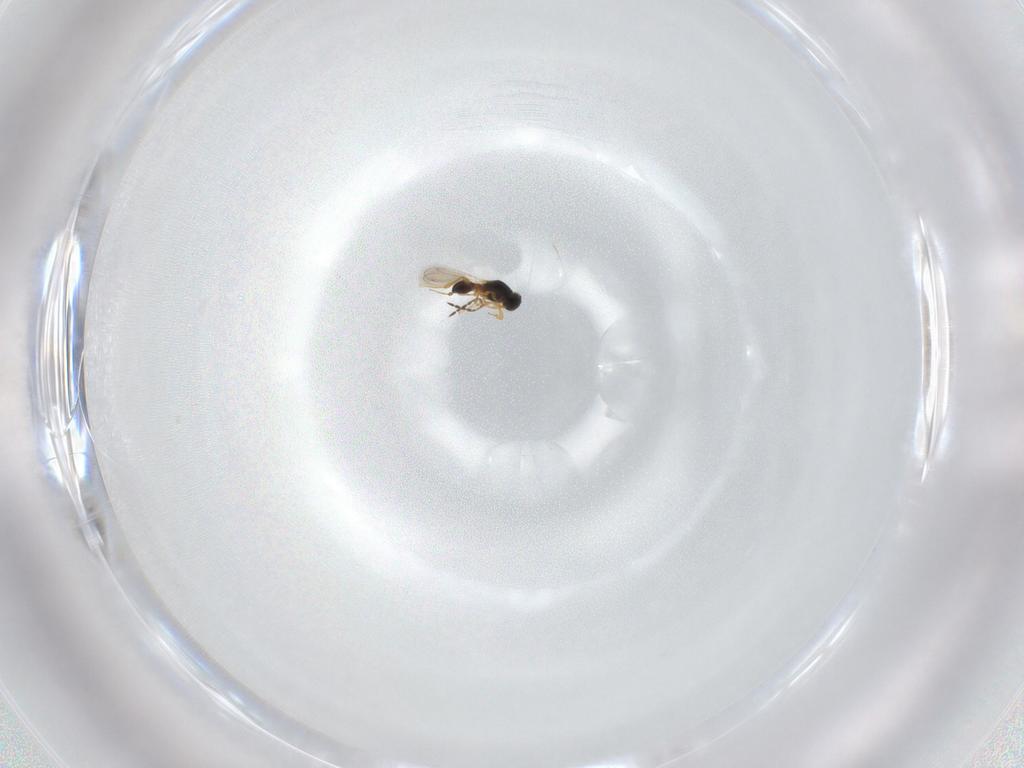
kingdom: Animalia
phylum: Arthropoda
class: Insecta
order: Hymenoptera
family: Platygastridae
